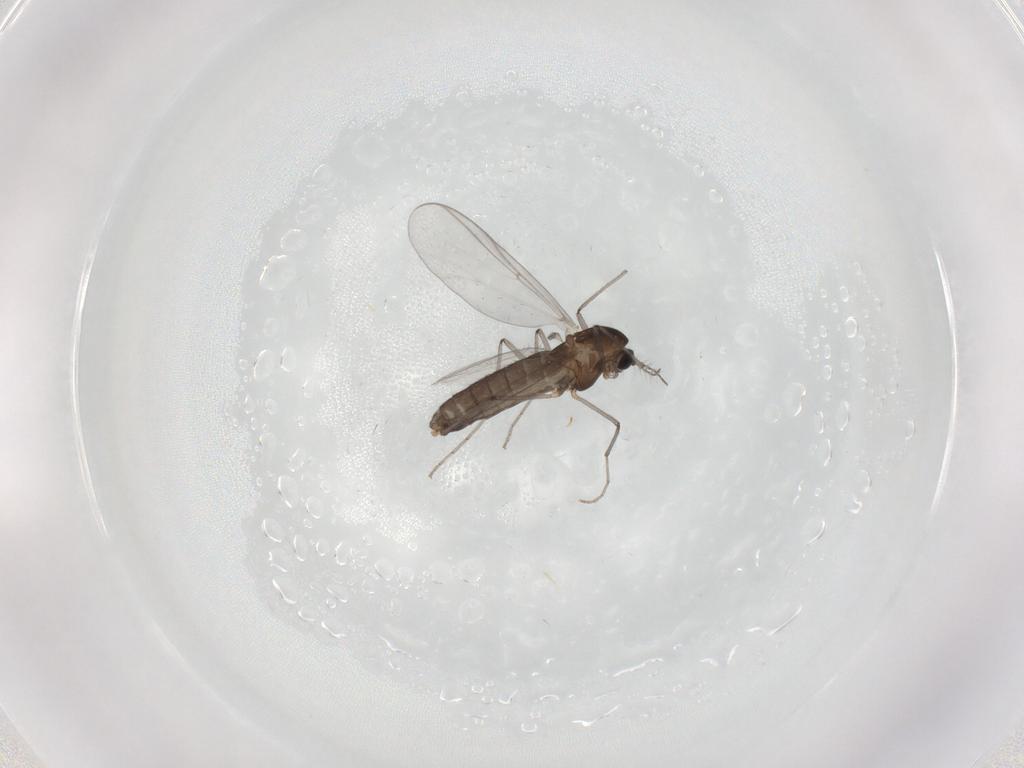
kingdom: Animalia
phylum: Arthropoda
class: Insecta
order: Diptera
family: Chironomidae
